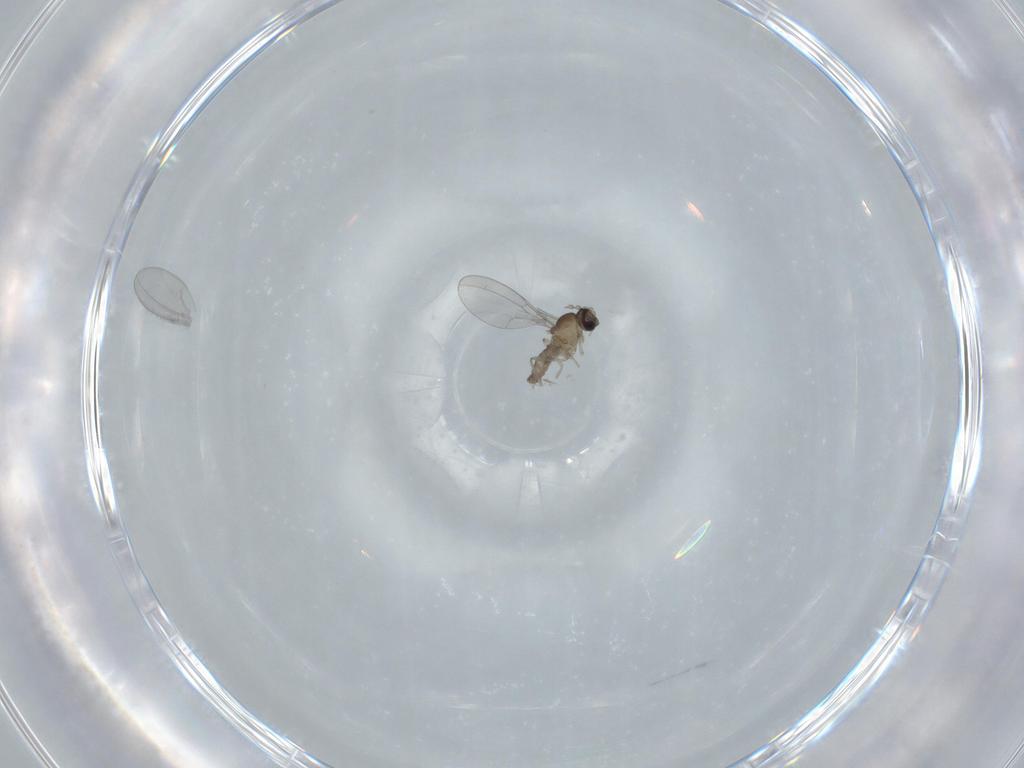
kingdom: Animalia
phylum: Arthropoda
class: Insecta
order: Diptera
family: Cecidomyiidae
